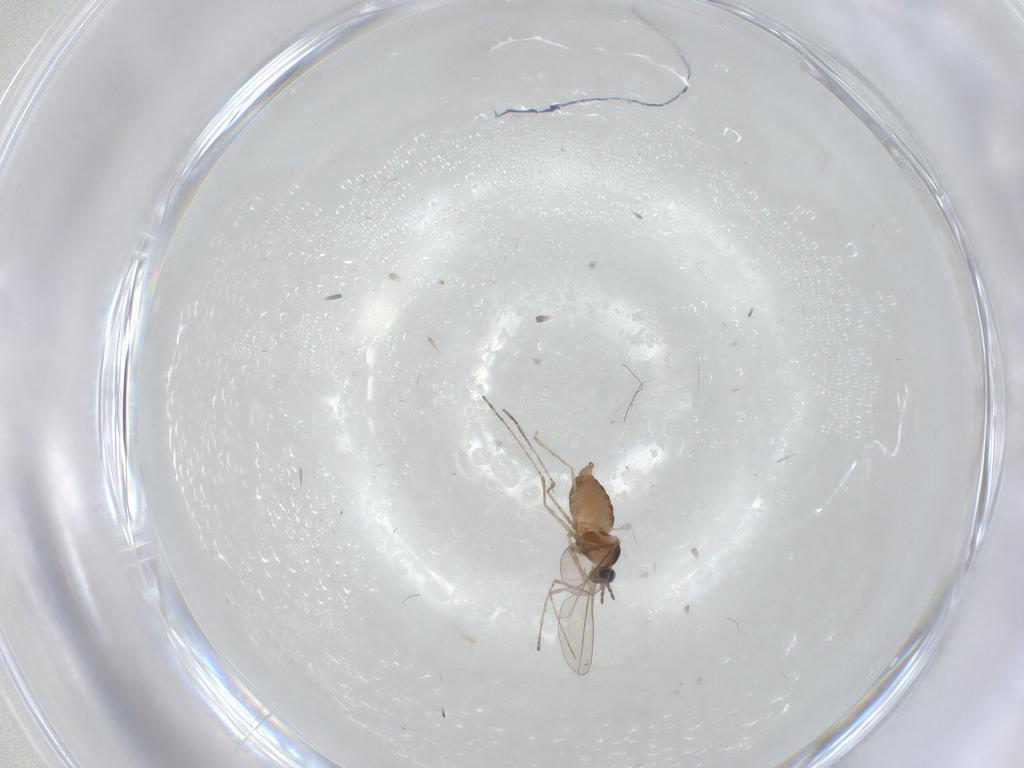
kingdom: Animalia
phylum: Arthropoda
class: Insecta
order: Diptera
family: Cecidomyiidae
